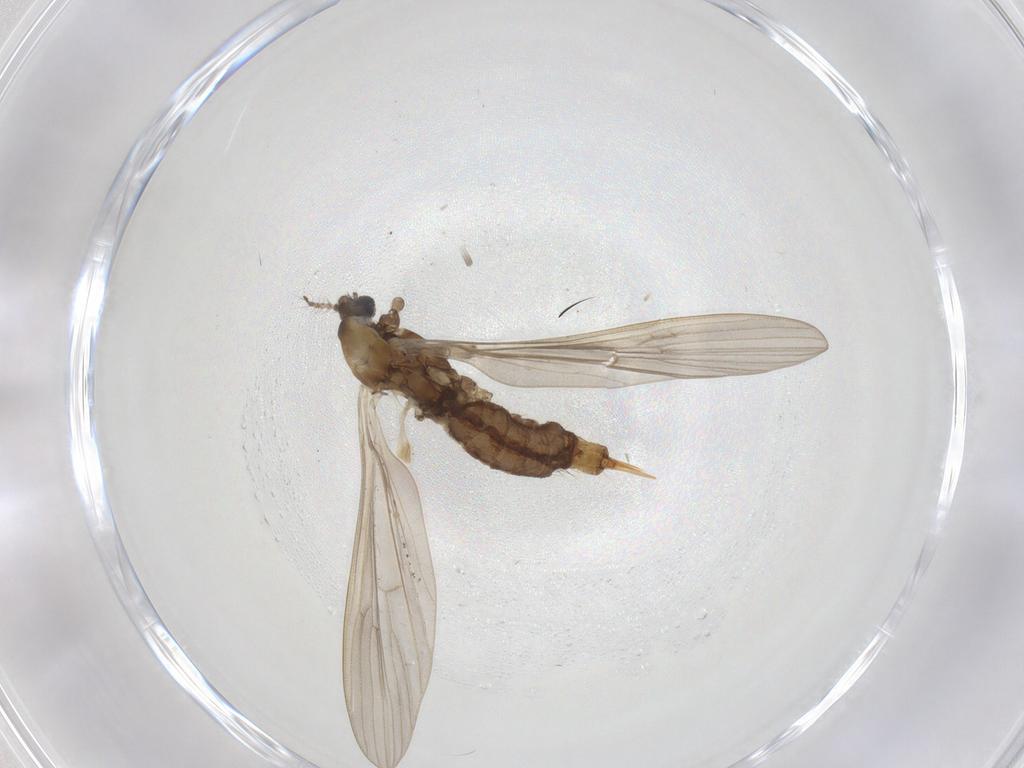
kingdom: Animalia
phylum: Arthropoda
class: Insecta
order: Diptera
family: Limoniidae
